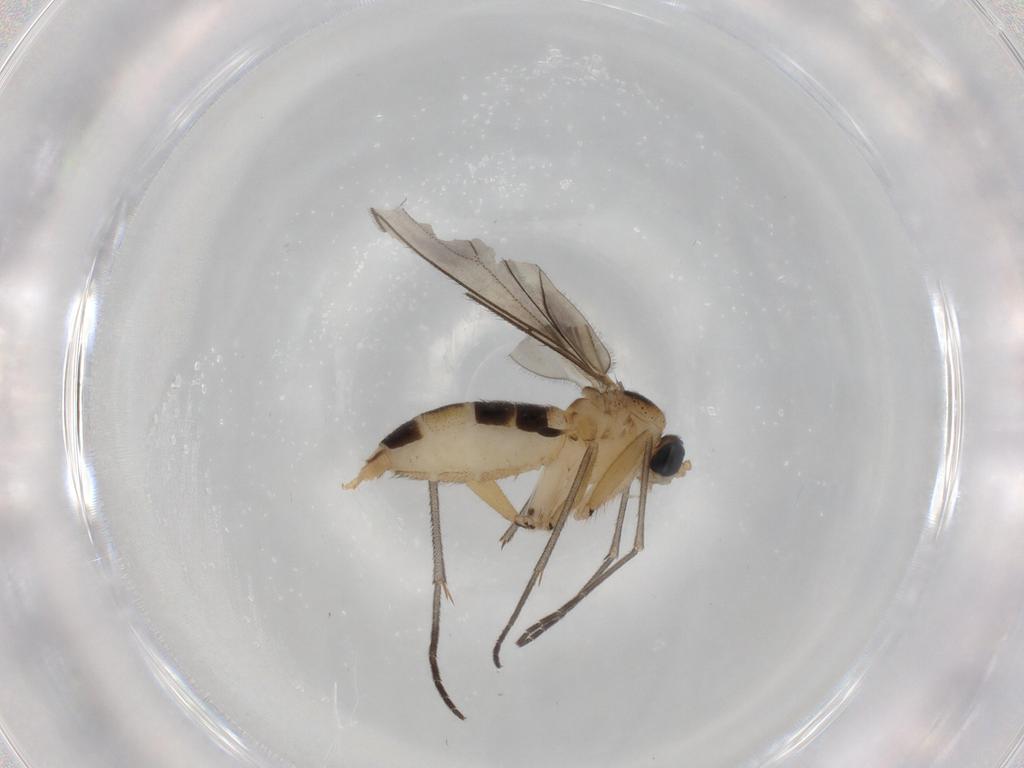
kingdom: Animalia
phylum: Arthropoda
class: Insecta
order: Diptera
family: Sciaridae
